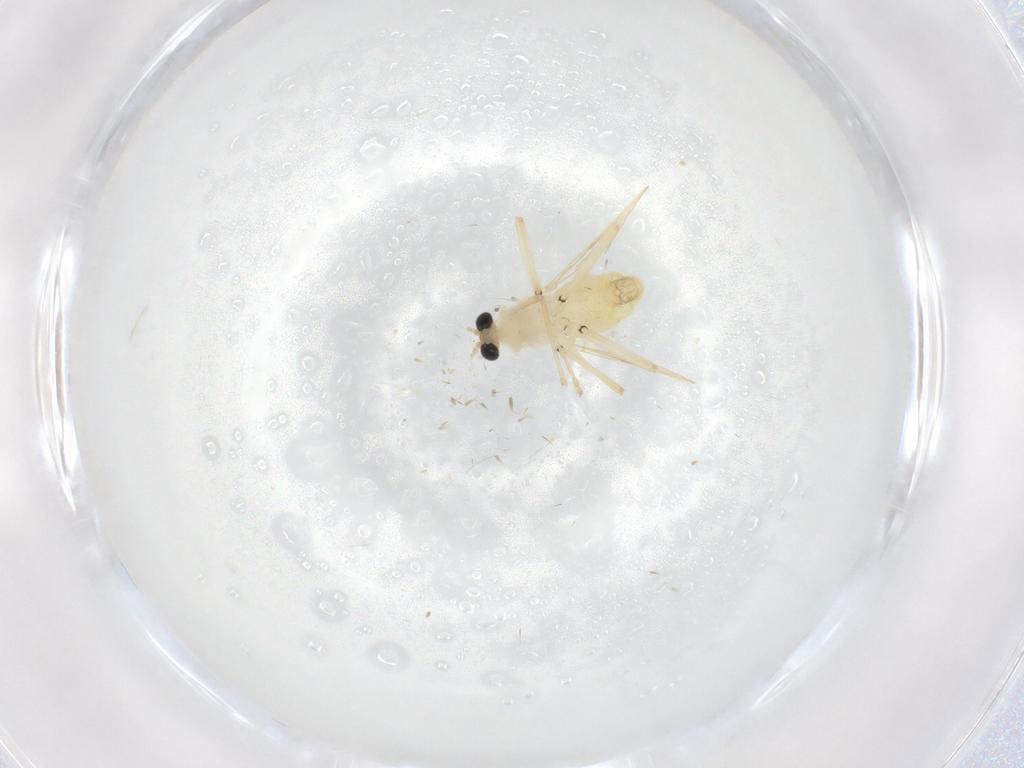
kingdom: Animalia
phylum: Arthropoda
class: Insecta
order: Diptera
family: Chironomidae
